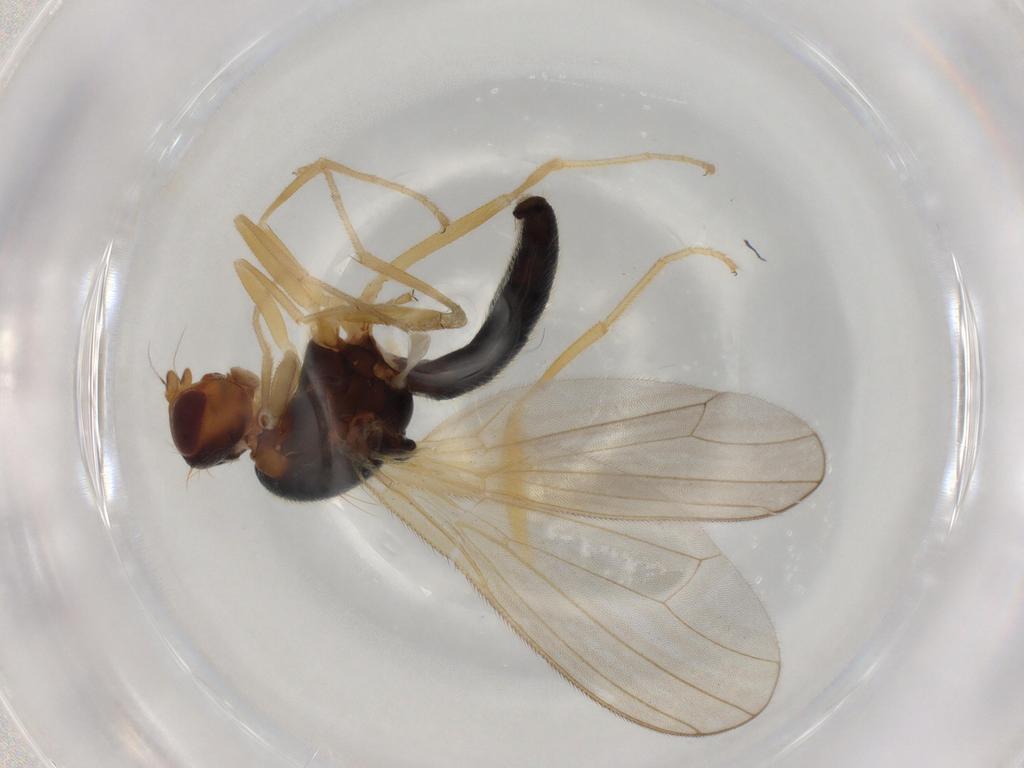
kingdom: Animalia
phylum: Arthropoda
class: Insecta
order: Diptera
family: Psilidae
